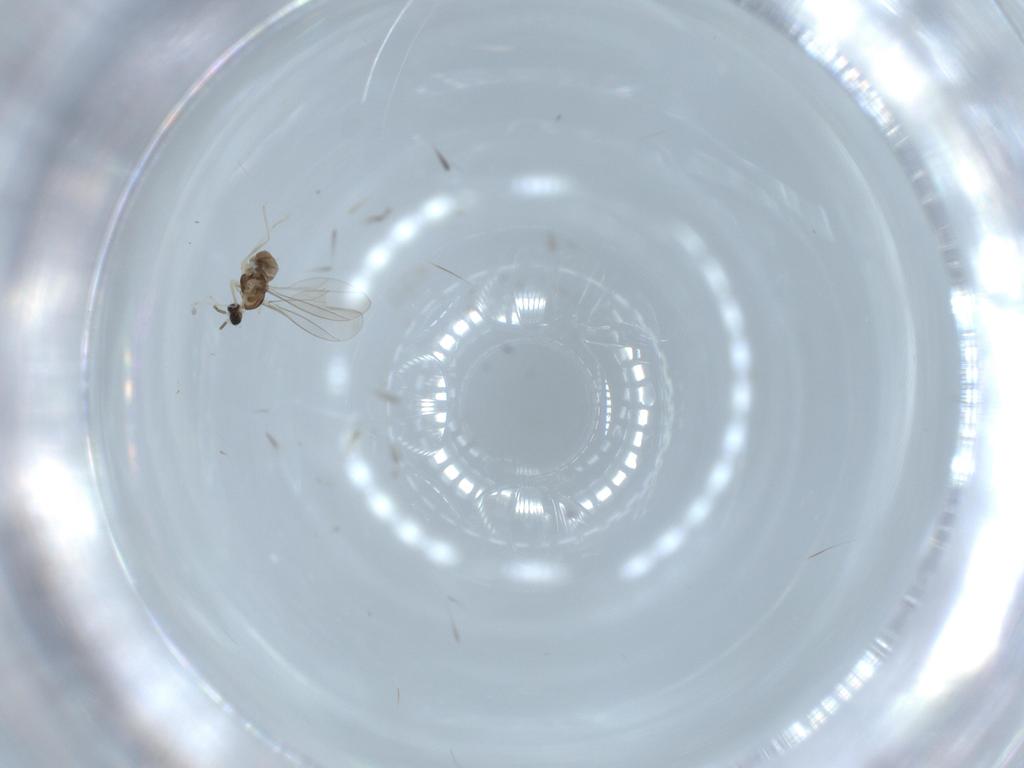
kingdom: Animalia
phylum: Arthropoda
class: Insecta
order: Diptera
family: Cecidomyiidae
